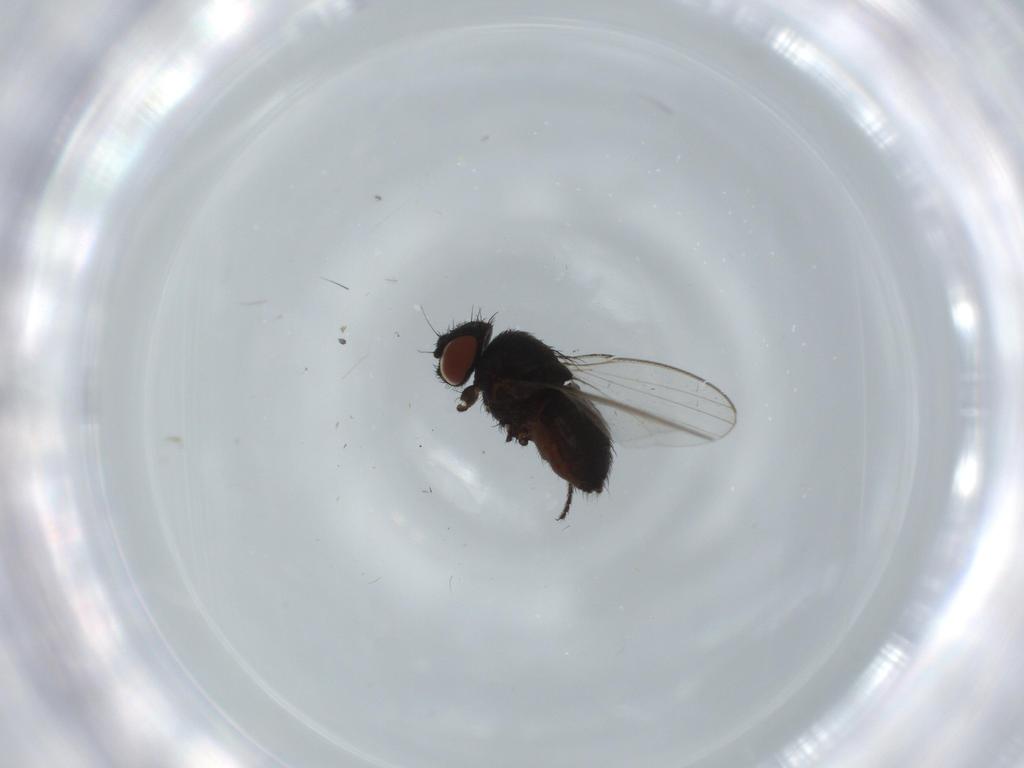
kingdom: Animalia
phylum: Arthropoda
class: Insecta
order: Diptera
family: Milichiidae
